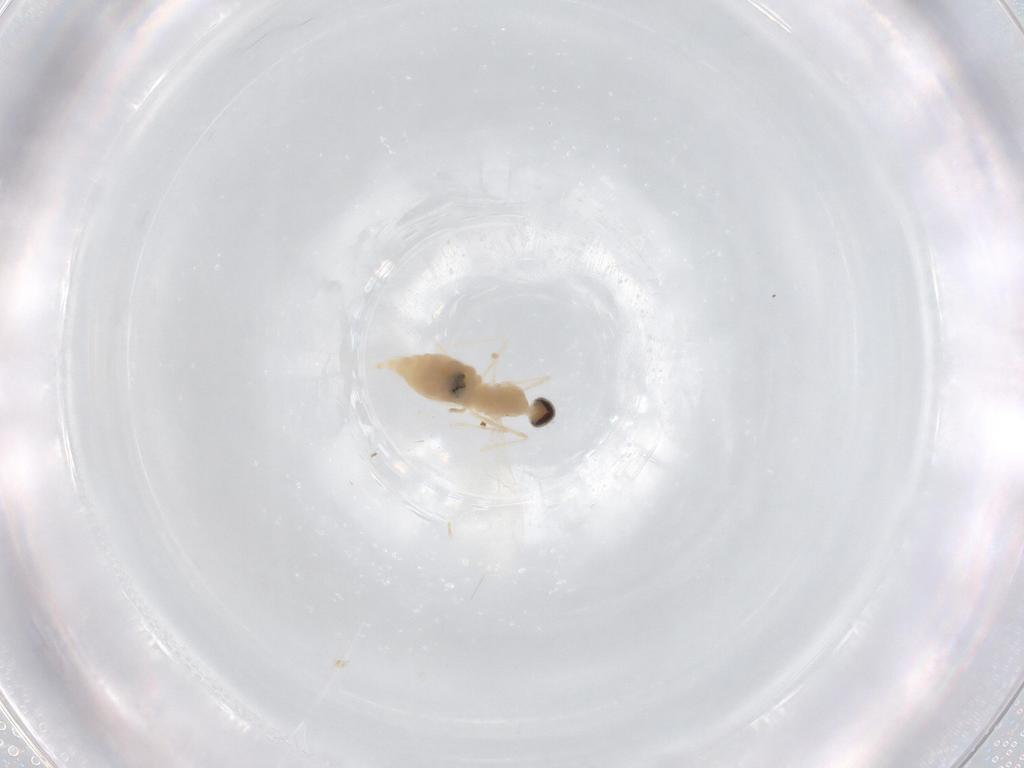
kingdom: Animalia
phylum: Arthropoda
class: Insecta
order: Diptera
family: Cecidomyiidae
